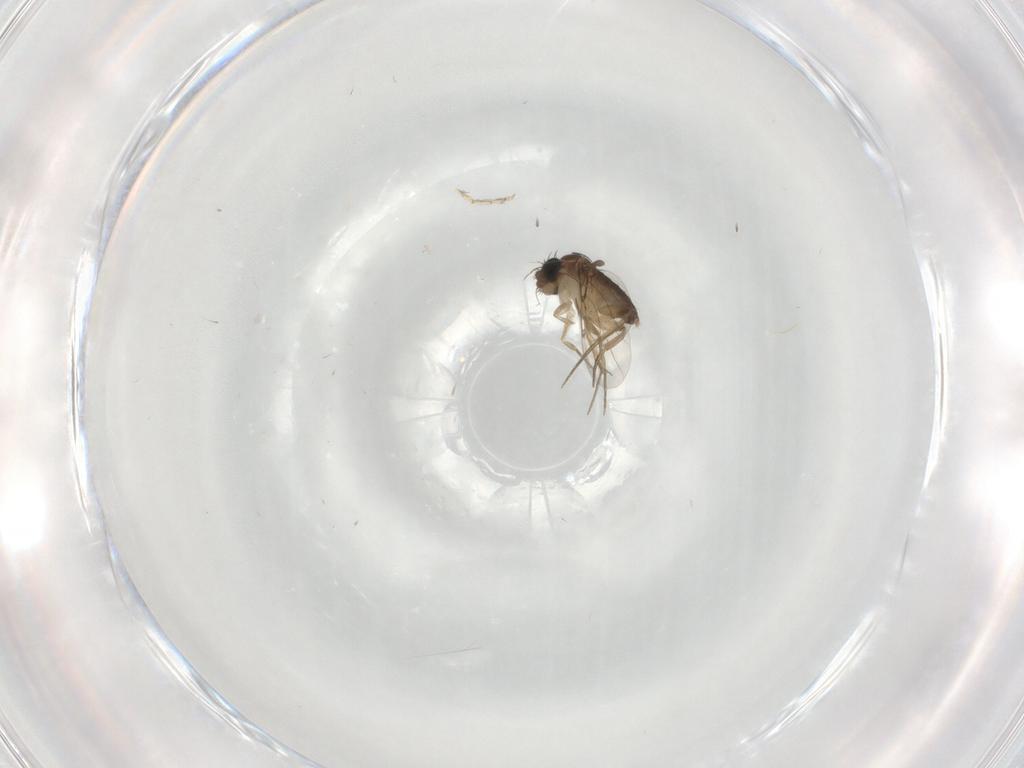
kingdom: Animalia
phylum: Arthropoda
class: Insecta
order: Diptera
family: Phoridae
